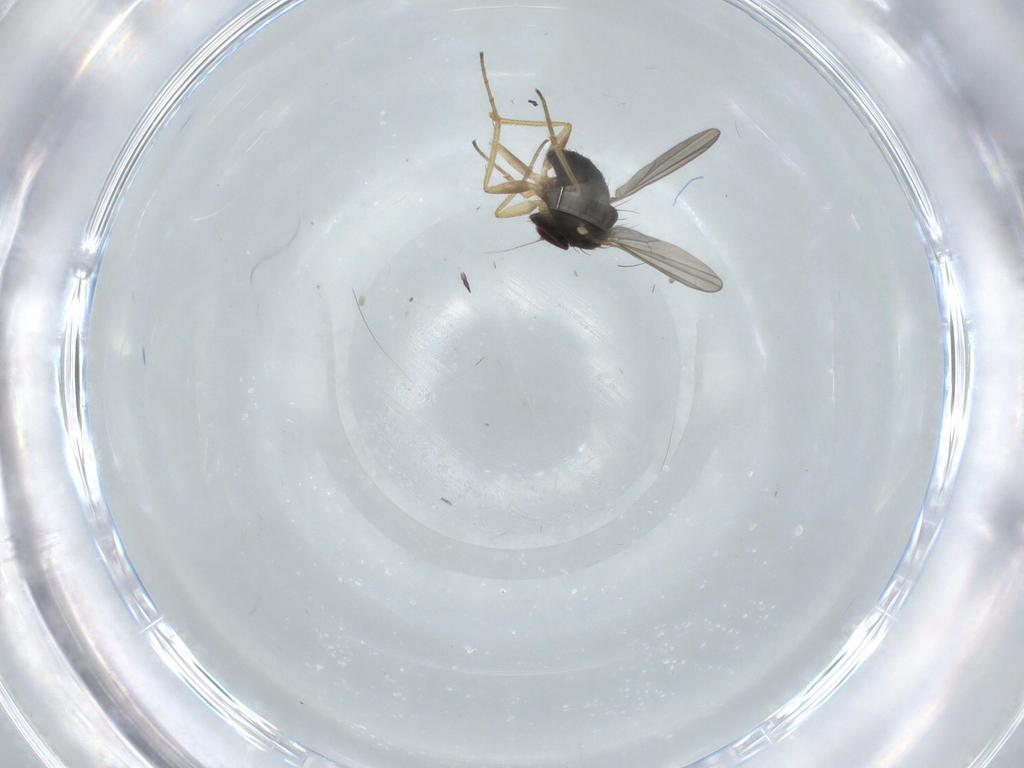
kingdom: Animalia
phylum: Arthropoda
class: Insecta
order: Diptera
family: Dolichopodidae
